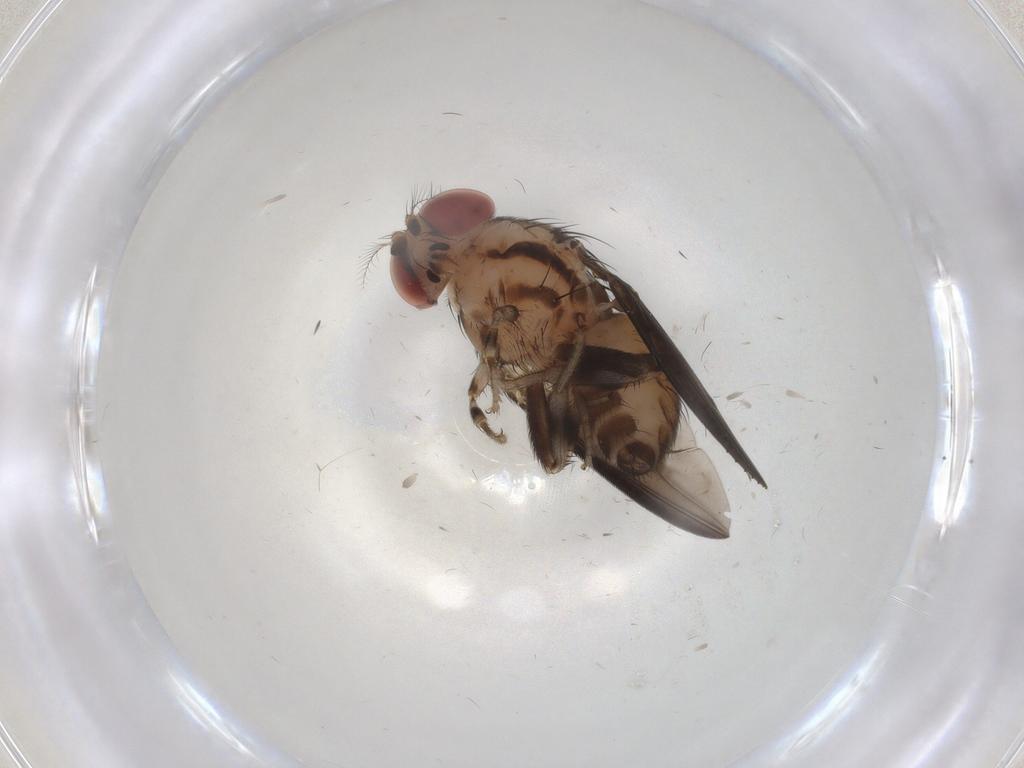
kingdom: Animalia
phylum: Arthropoda
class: Insecta
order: Diptera
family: Drosophilidae
